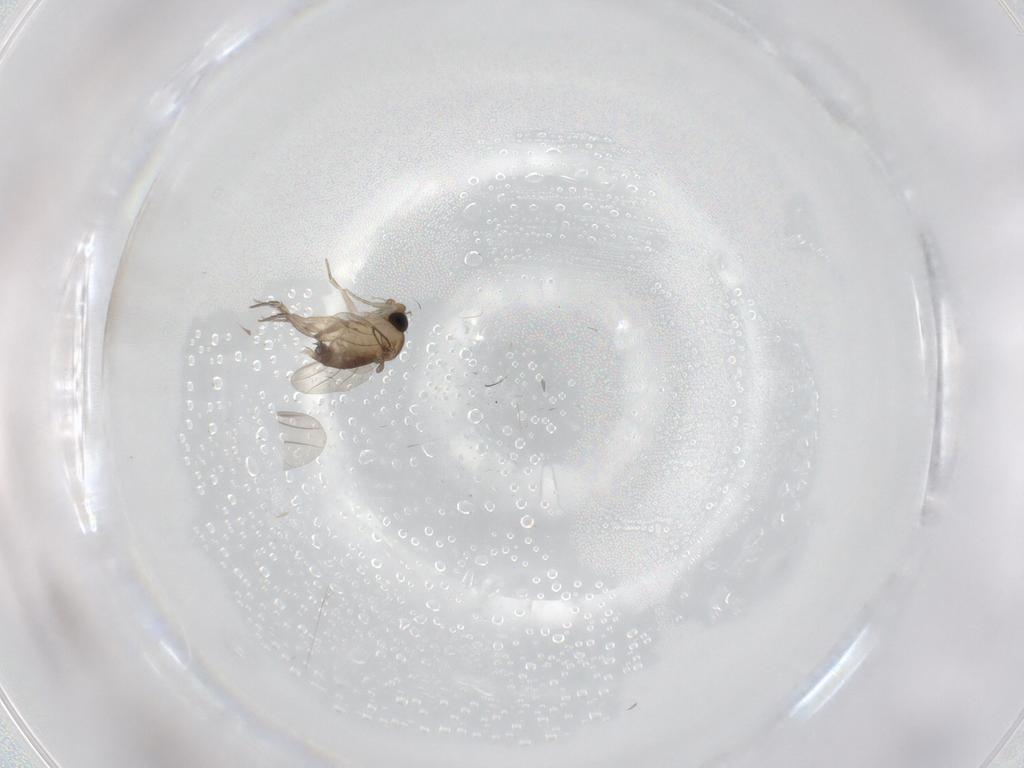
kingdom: Animalia
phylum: Arthropoda
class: Insecta
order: Diptera
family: Phoridae
